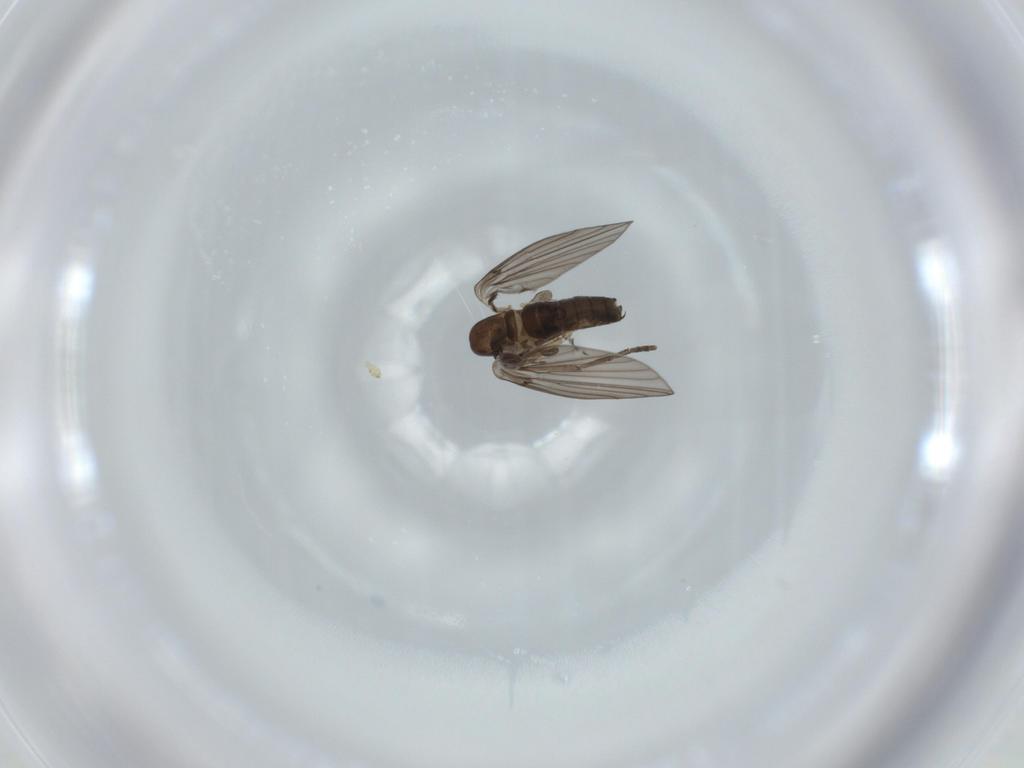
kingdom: Animalia
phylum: Arthropoda
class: Insecta
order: Diptera
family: Psychodidae
